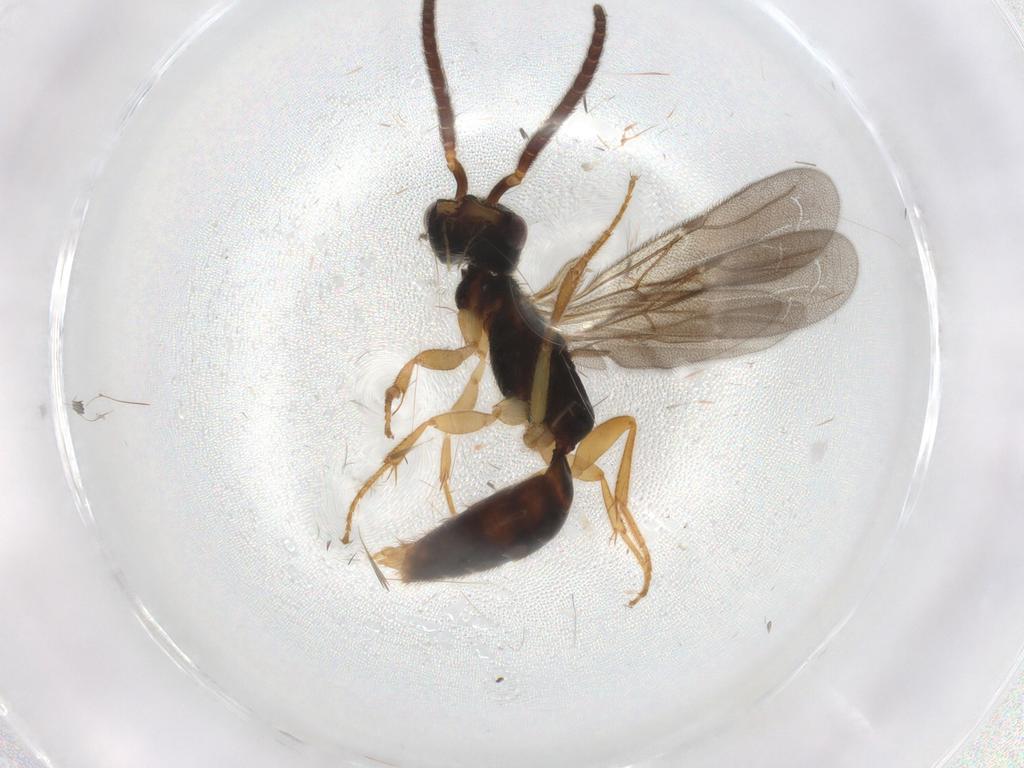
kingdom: Animalia
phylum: Arthropoda
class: Insecta
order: Hymenoptera
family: Bethylidae
